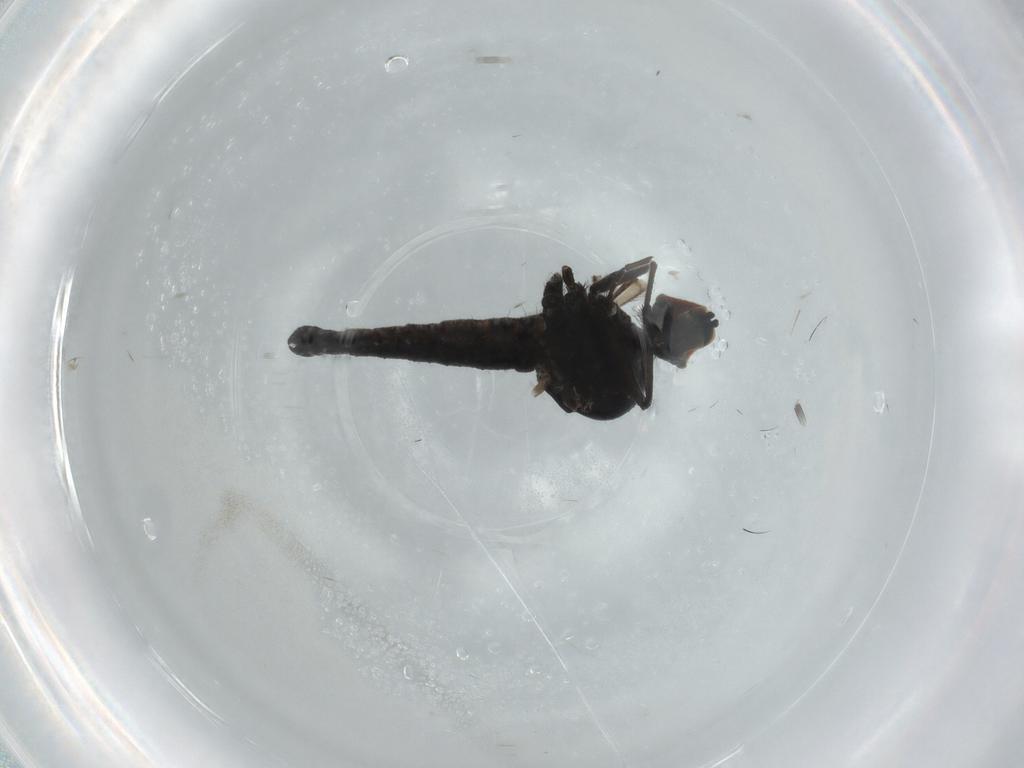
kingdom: Animalia
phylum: Arthropoda
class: Insecta
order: Diptera
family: Hybotidae
